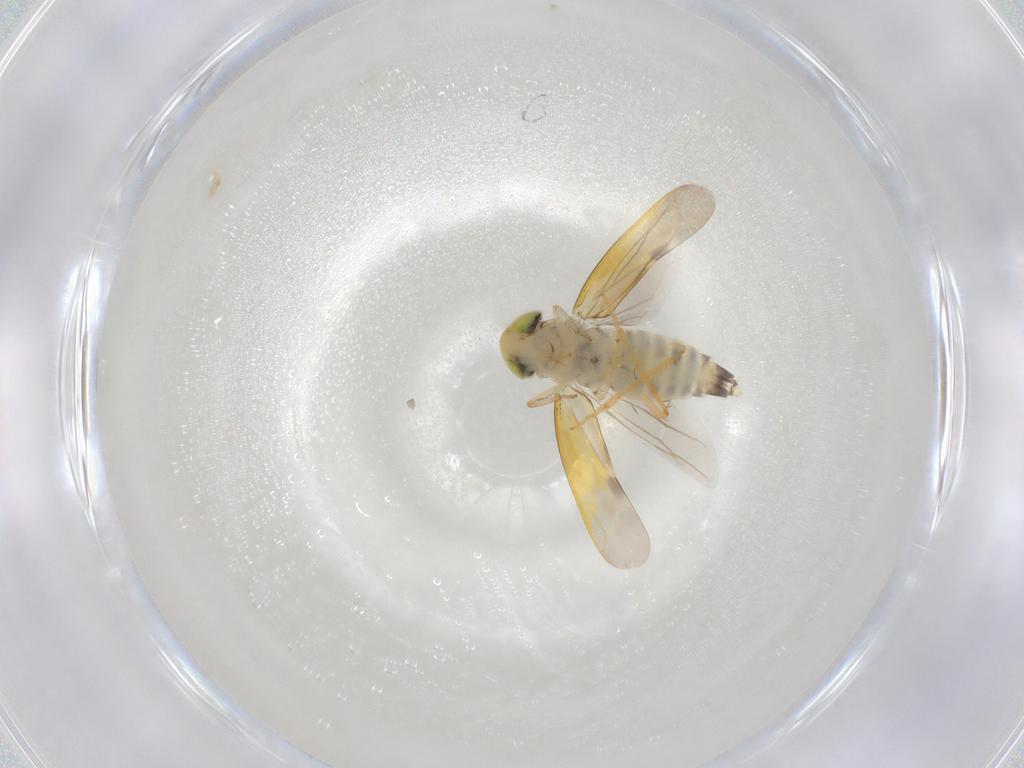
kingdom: Animalia
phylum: Arthropoda
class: Insecta
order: Hemiptera
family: Cicadellidae
